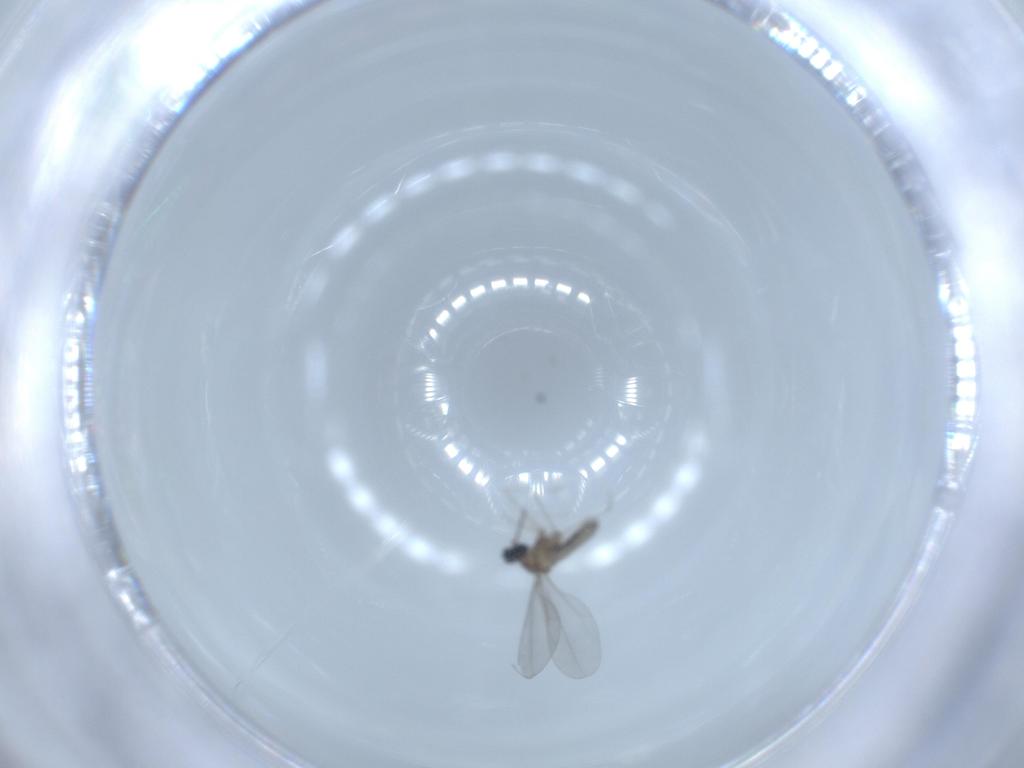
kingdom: Animalia
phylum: Arthropoda
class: Insecta
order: Diptera
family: Cecidomyiidae
